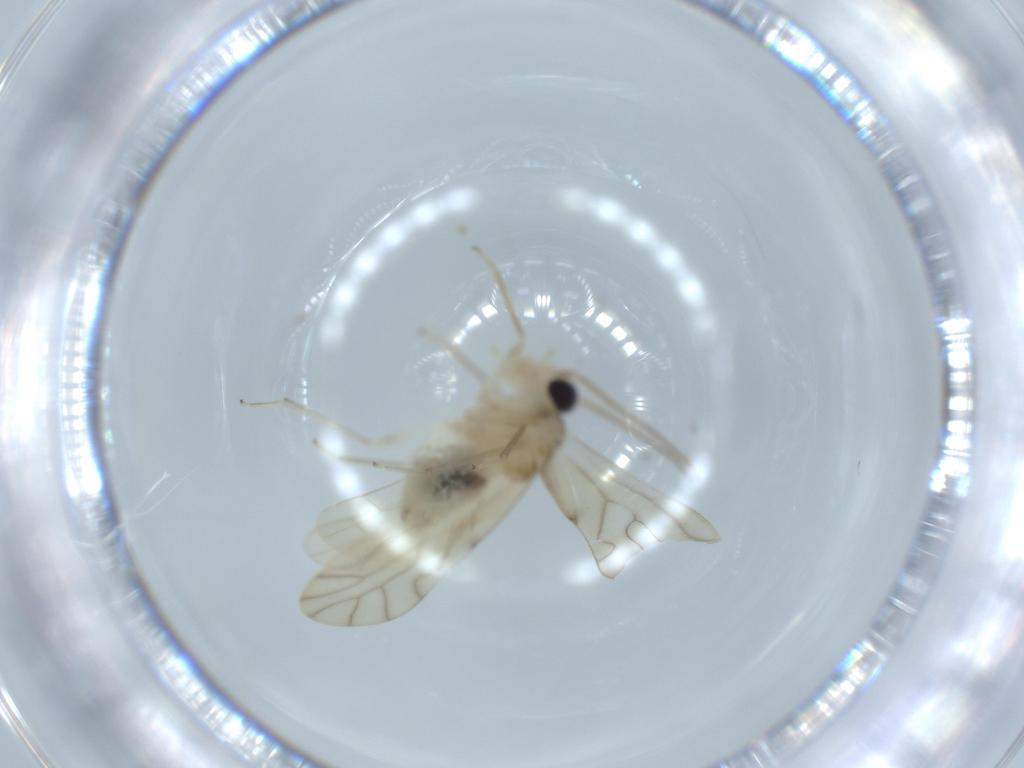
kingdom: Animalia
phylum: Arthropoda
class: Insecta
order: Psocodea
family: Caeciliusidae
